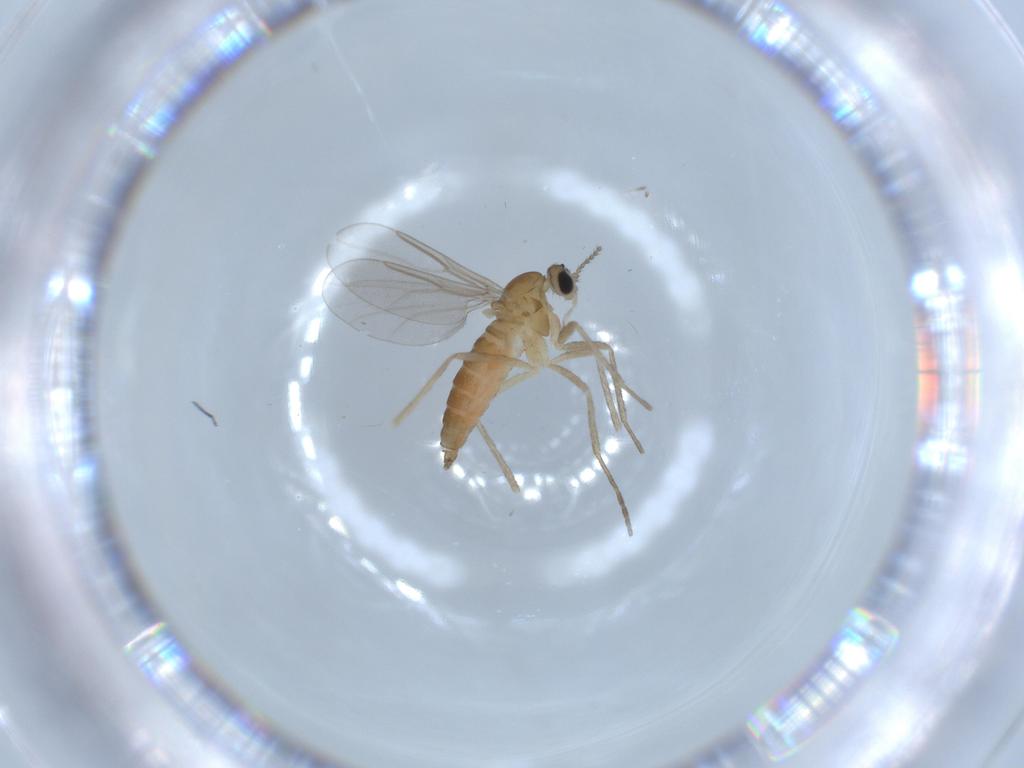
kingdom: Animalia
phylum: Arthropoda
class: Insecta
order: Diptera
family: Cecidomyiidae
